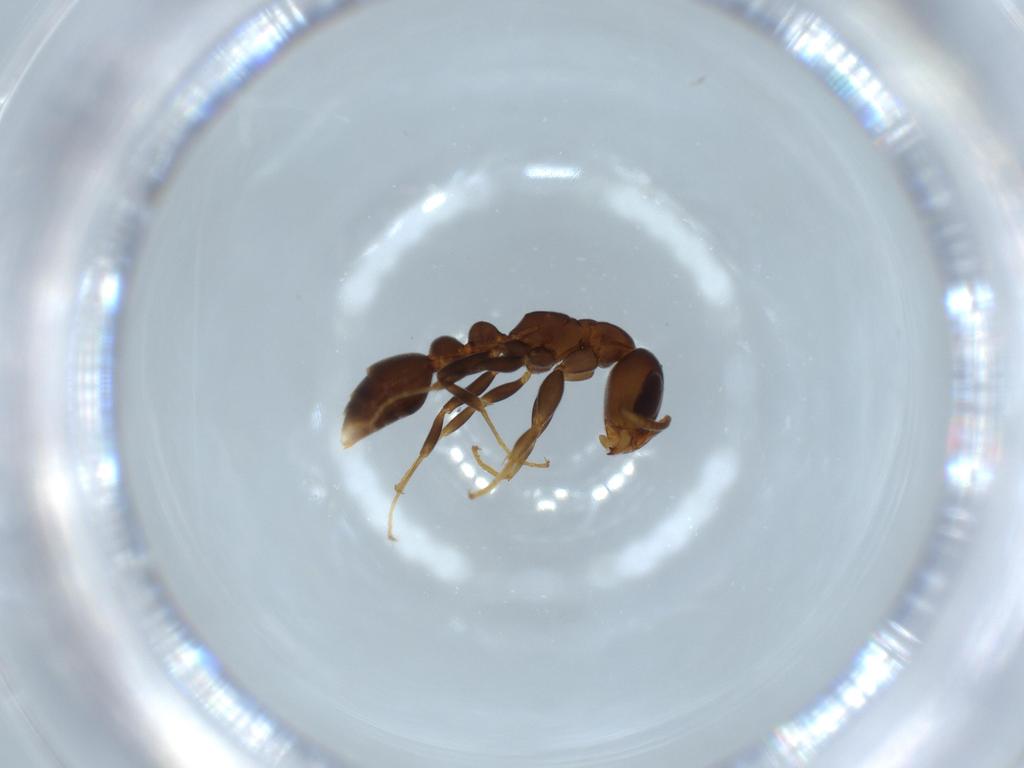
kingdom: Animalia
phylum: Arthropoda
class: Insecta
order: Hymenoptera
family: Formicidae
